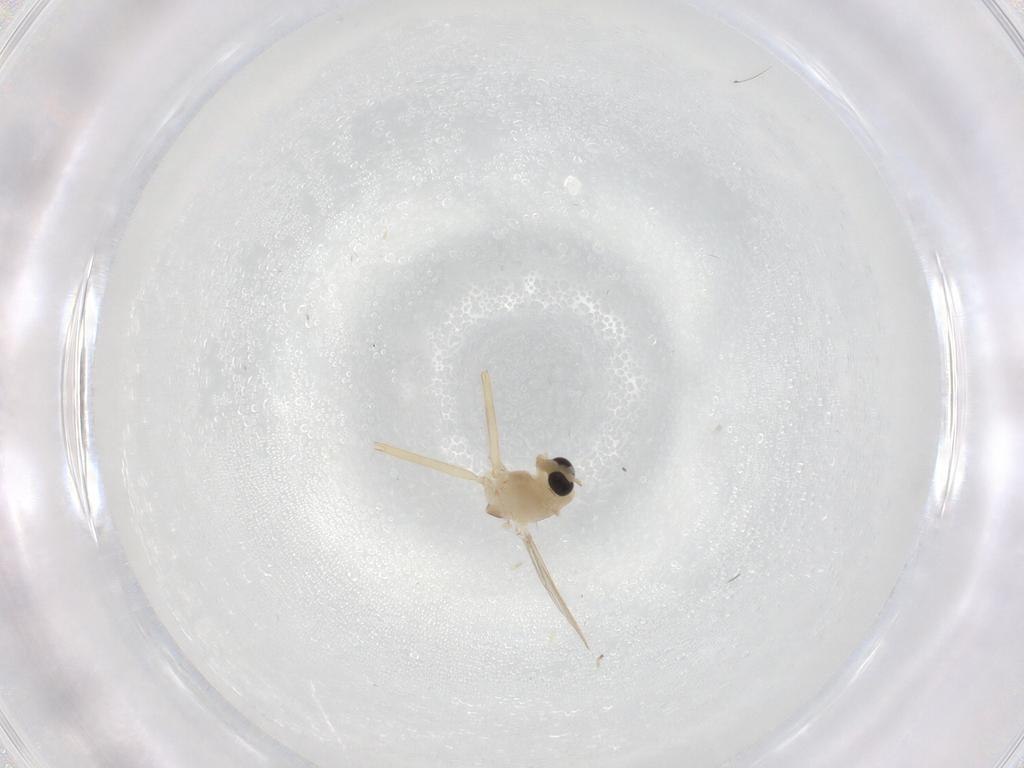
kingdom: Animalia
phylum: Arthropoda
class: Insecta
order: Diptera
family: Chironomidae
